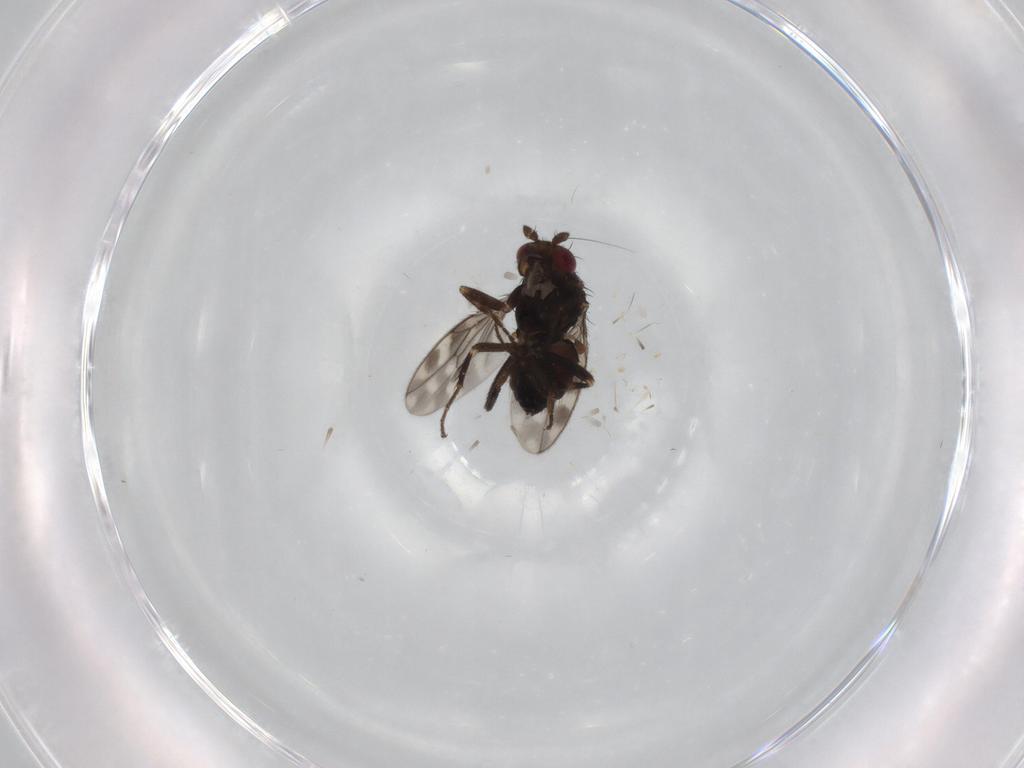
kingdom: Animalia
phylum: Arthropoda
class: Insecta
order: Diptera
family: Sphaeroceridae
